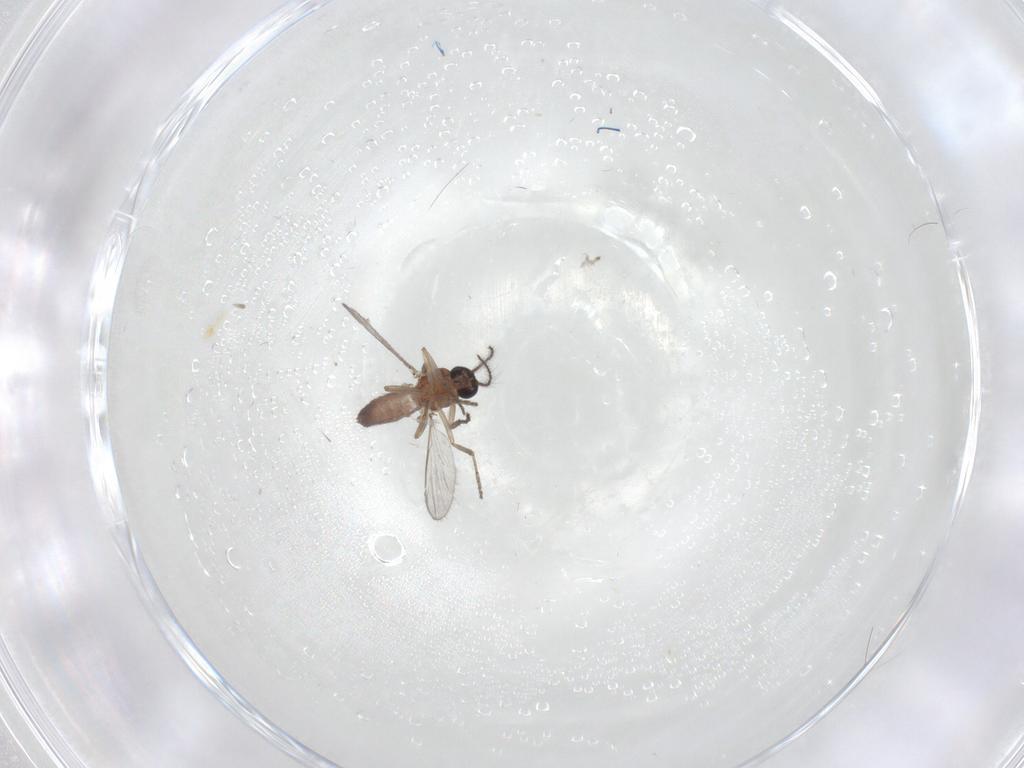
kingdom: Animalia
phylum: Arthropoda
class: Insecta
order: Diptera
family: Ceratopogonidae
